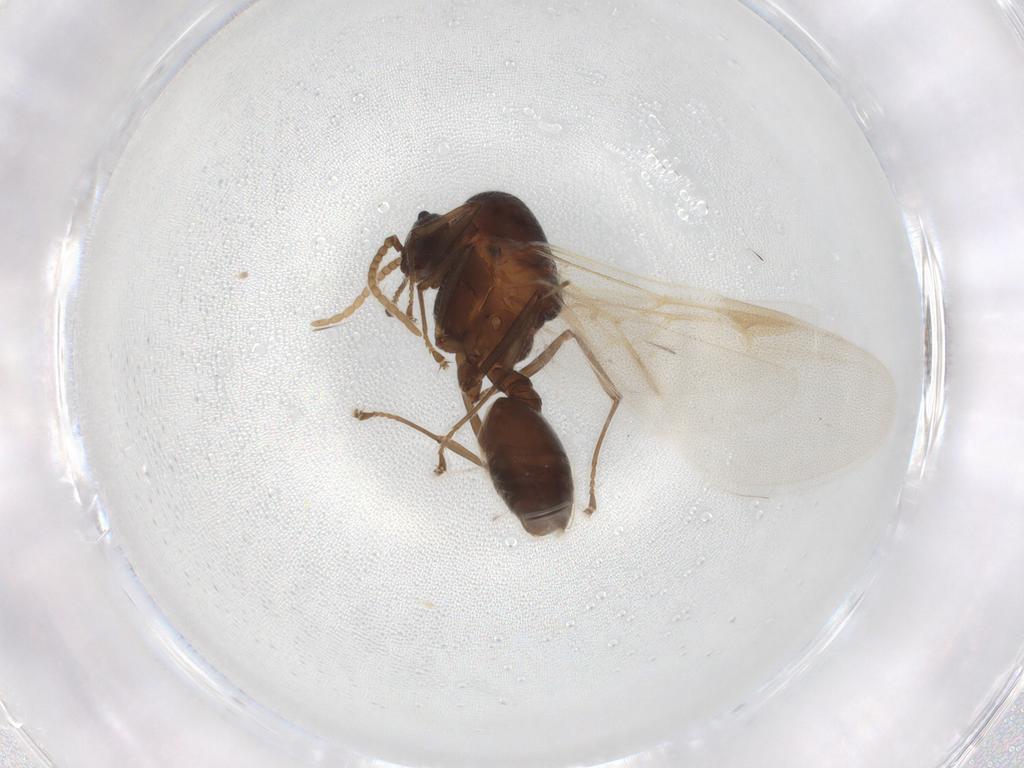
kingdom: Animalia
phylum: Arthropoda
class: Insecta
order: Hymenoptera
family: Formicidae
